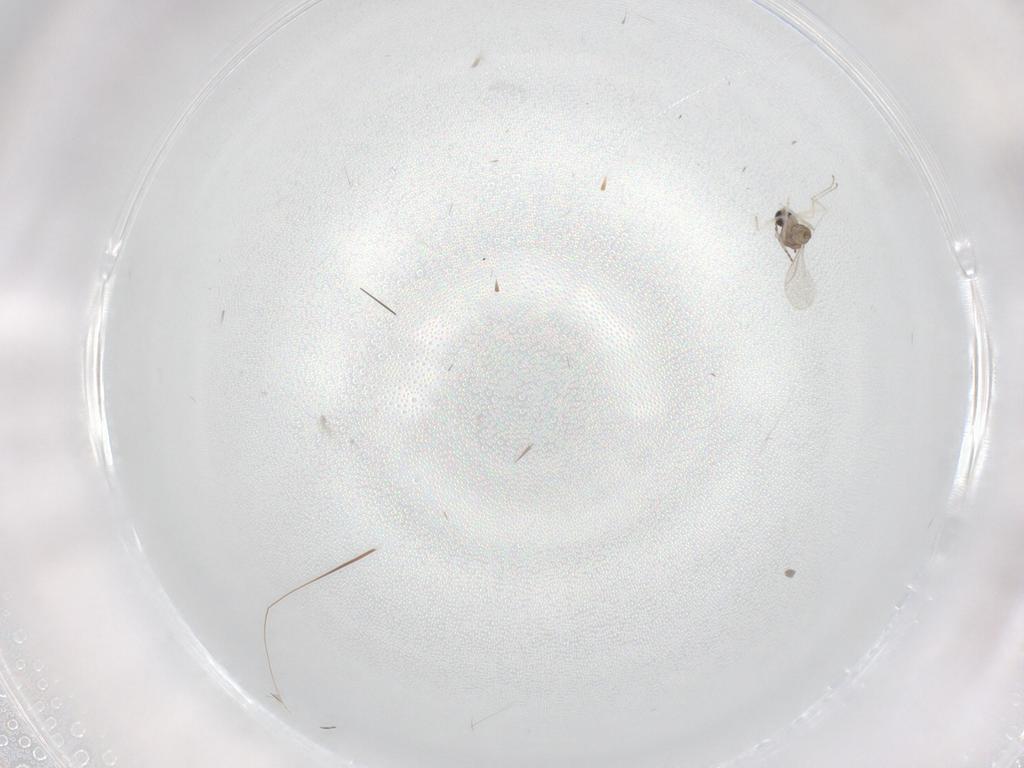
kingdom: Animalia
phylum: Arthropoda
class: Insecta
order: Diptera
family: Cecidomyiidae
